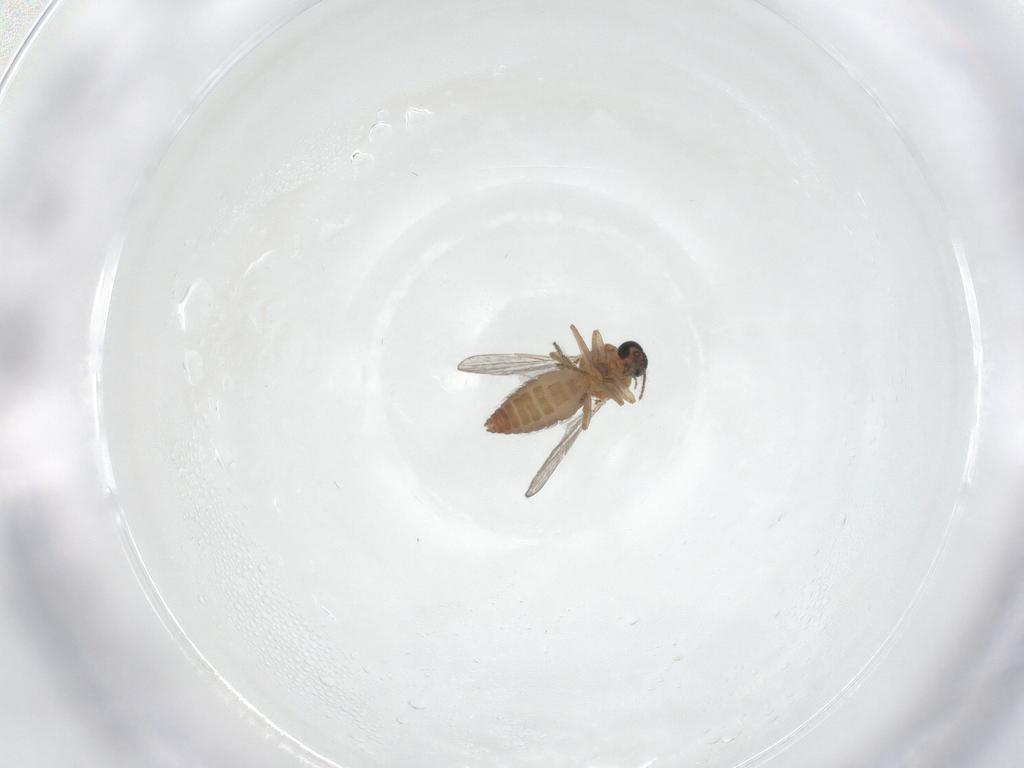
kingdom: Animalia
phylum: Arthropoda
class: Insecta
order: Diptera
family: Ceratopogonidae
